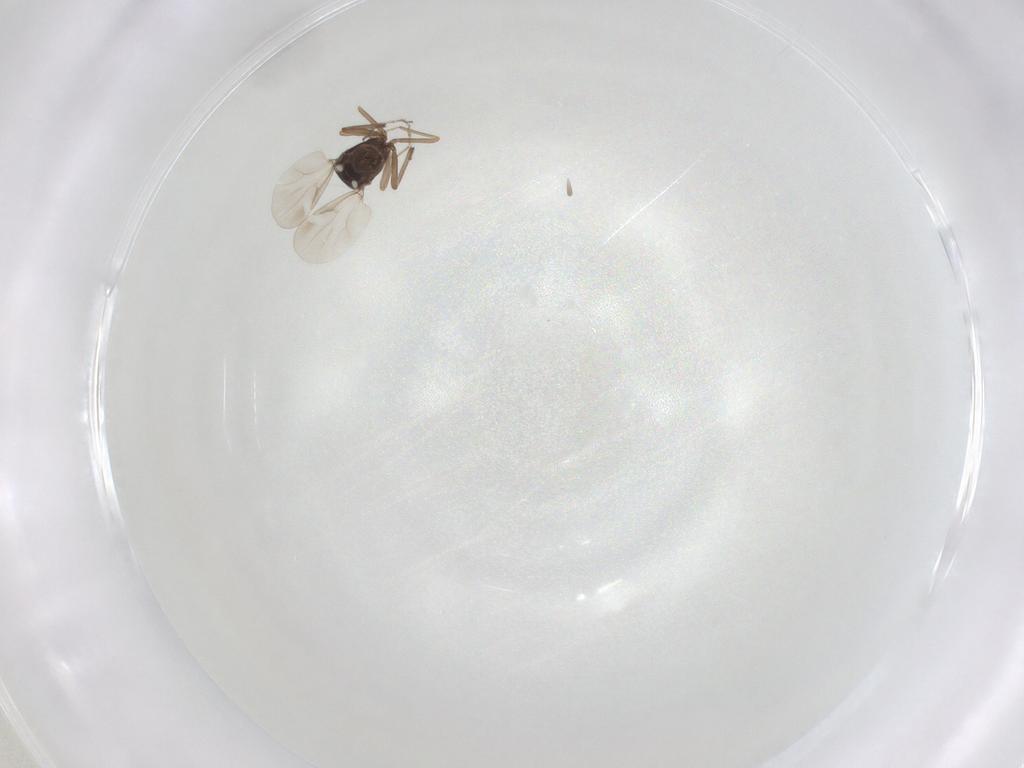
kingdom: Animalia
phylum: Arthropoda
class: Insecta
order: Diptera
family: Ceratopogonidae
